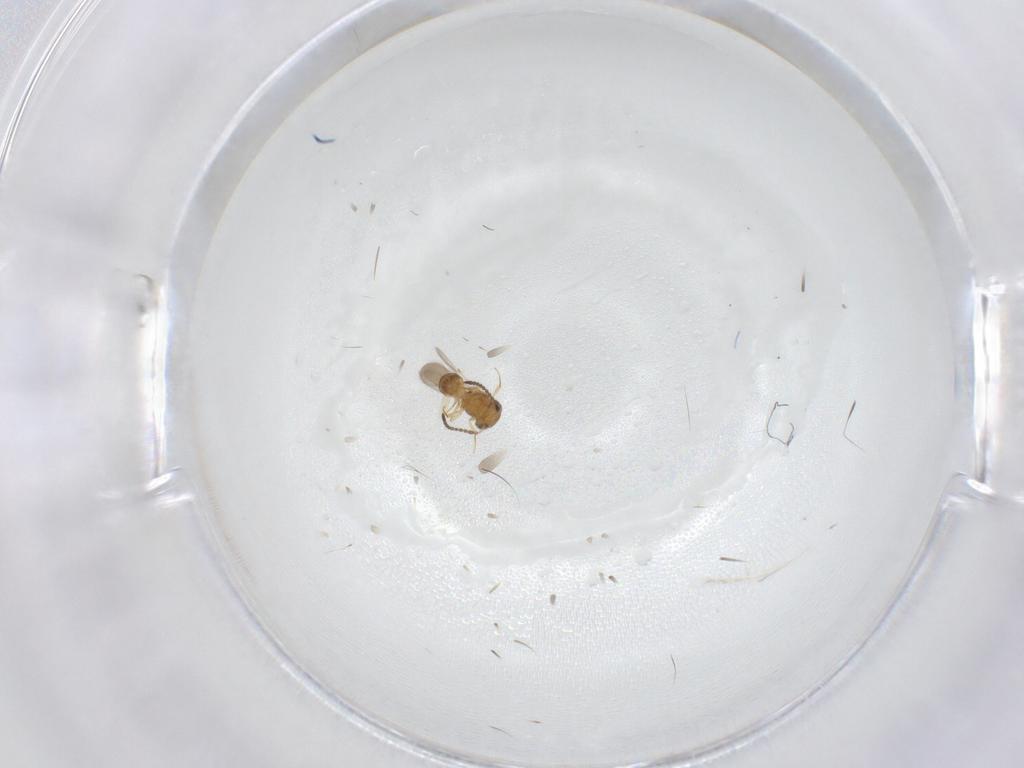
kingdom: Animalia
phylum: Arthropoda
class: Insecta
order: Hymenoptera
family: Scelionidae
